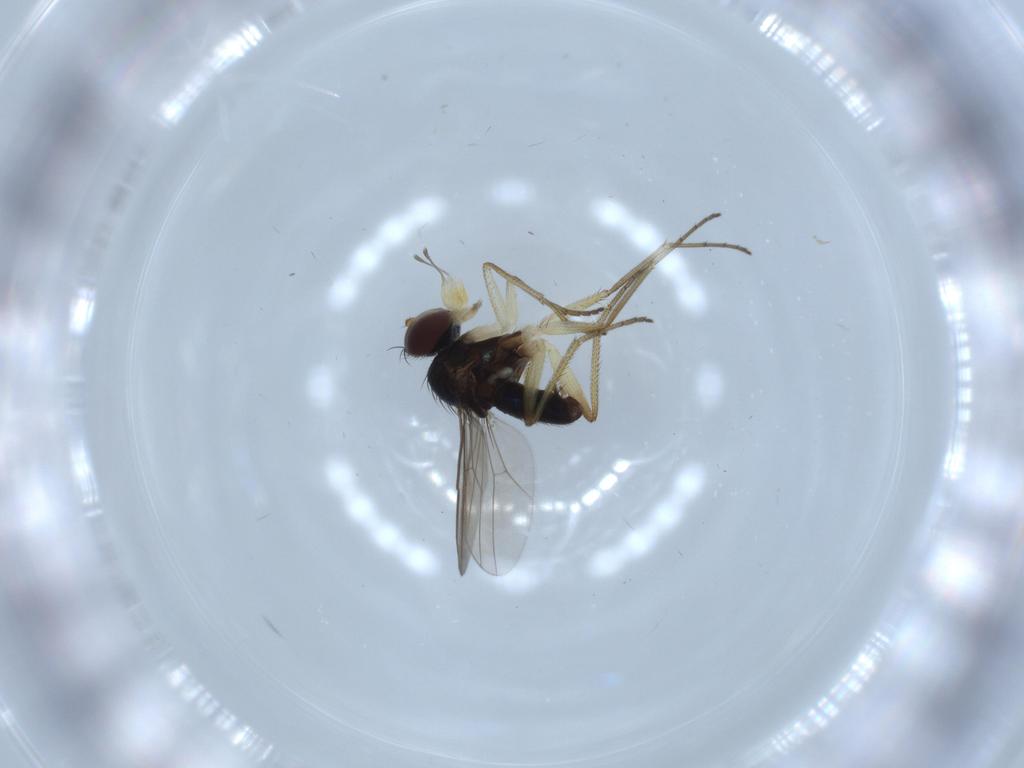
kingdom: Animalia
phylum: Arthropoda
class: Insecta
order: Diptera
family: Dolichopodidae
